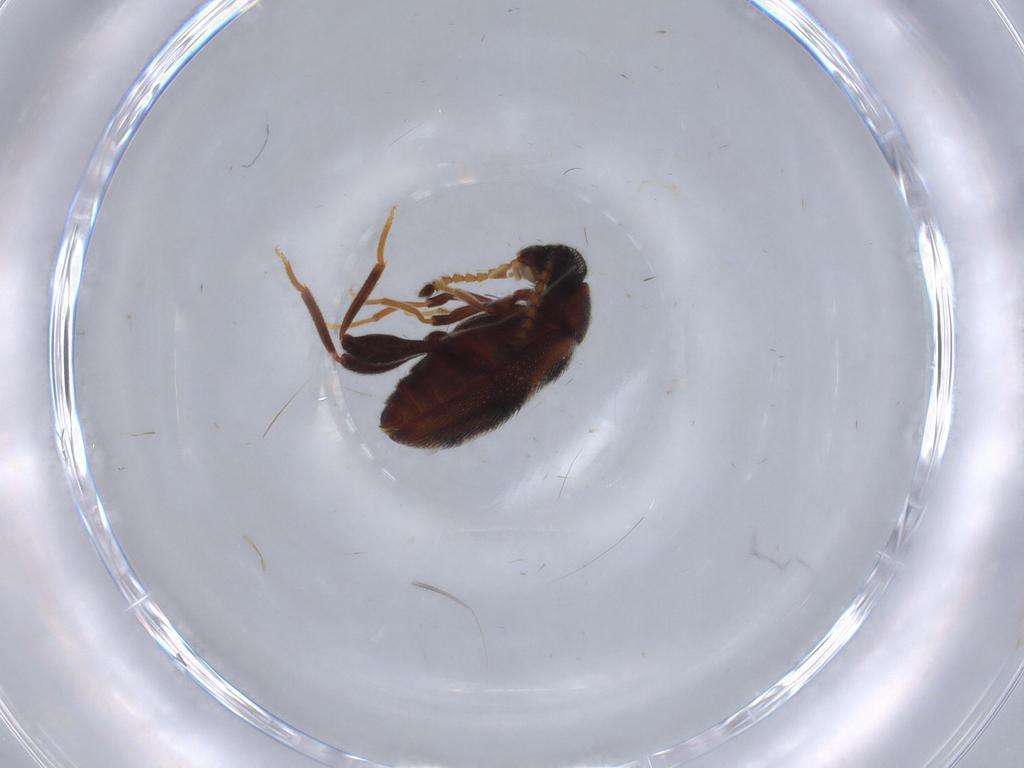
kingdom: Animalia
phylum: Arthropoda
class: Insecta
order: Coleoptera
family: Aderidae
